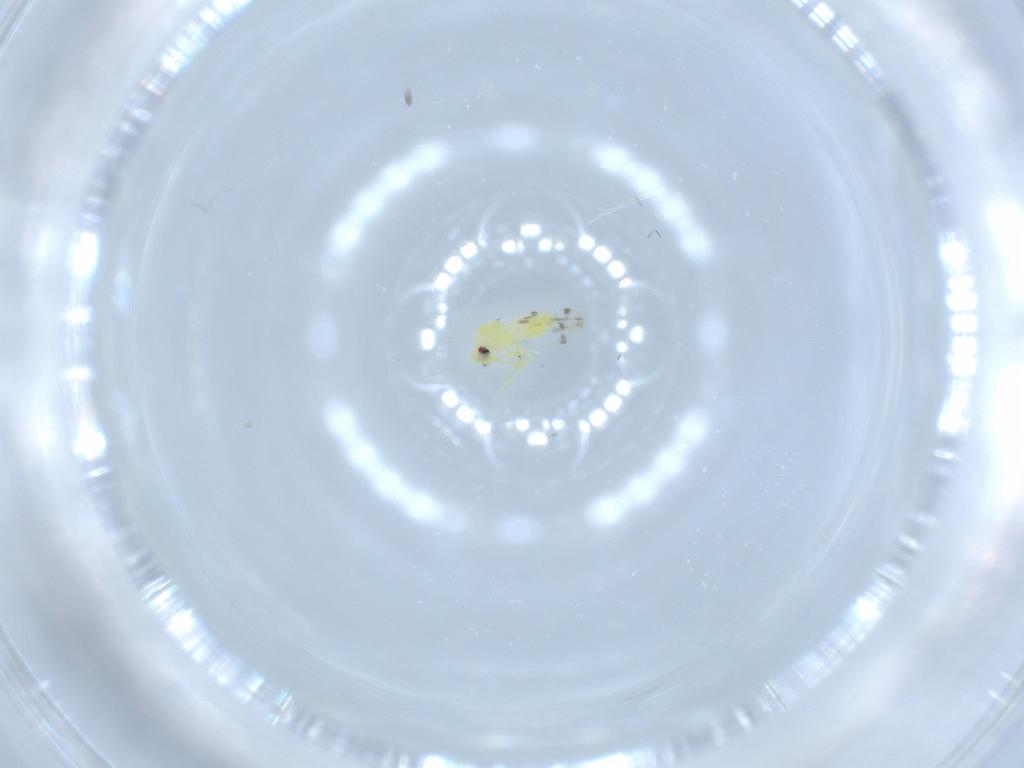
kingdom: Animalia
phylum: Arthropoda
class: Insecta
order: Hemiptera
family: Aleyrodidae
